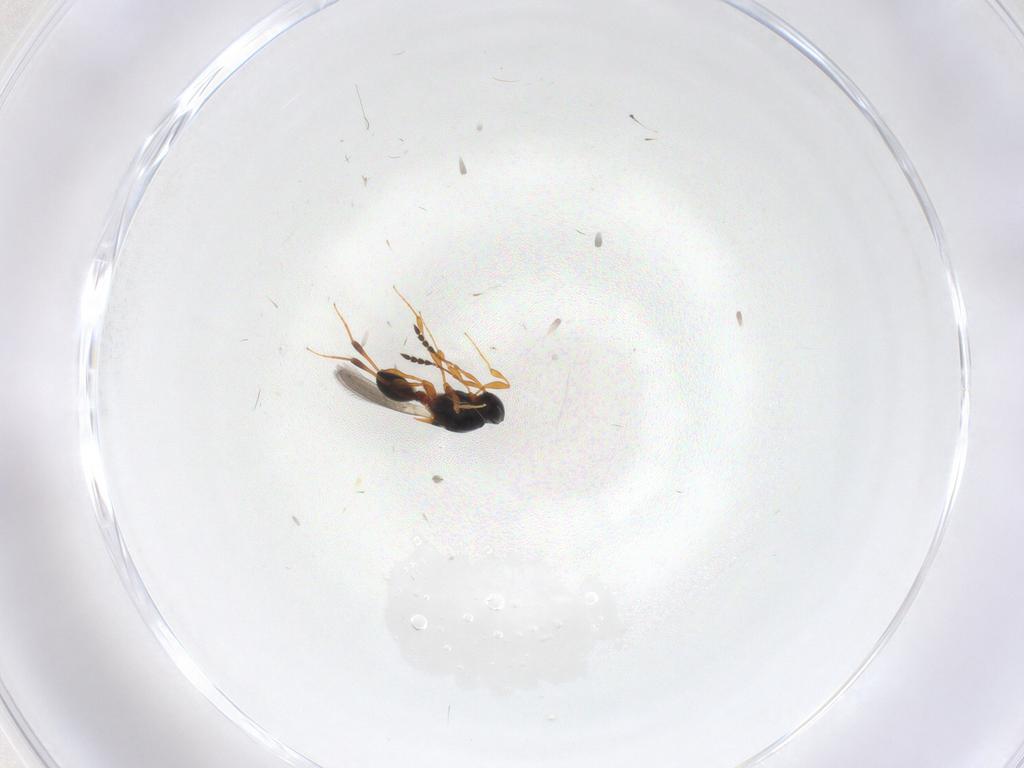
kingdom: Animalia
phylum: Arthropoda
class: Insecta
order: Hymenoptera
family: Platygastridae
